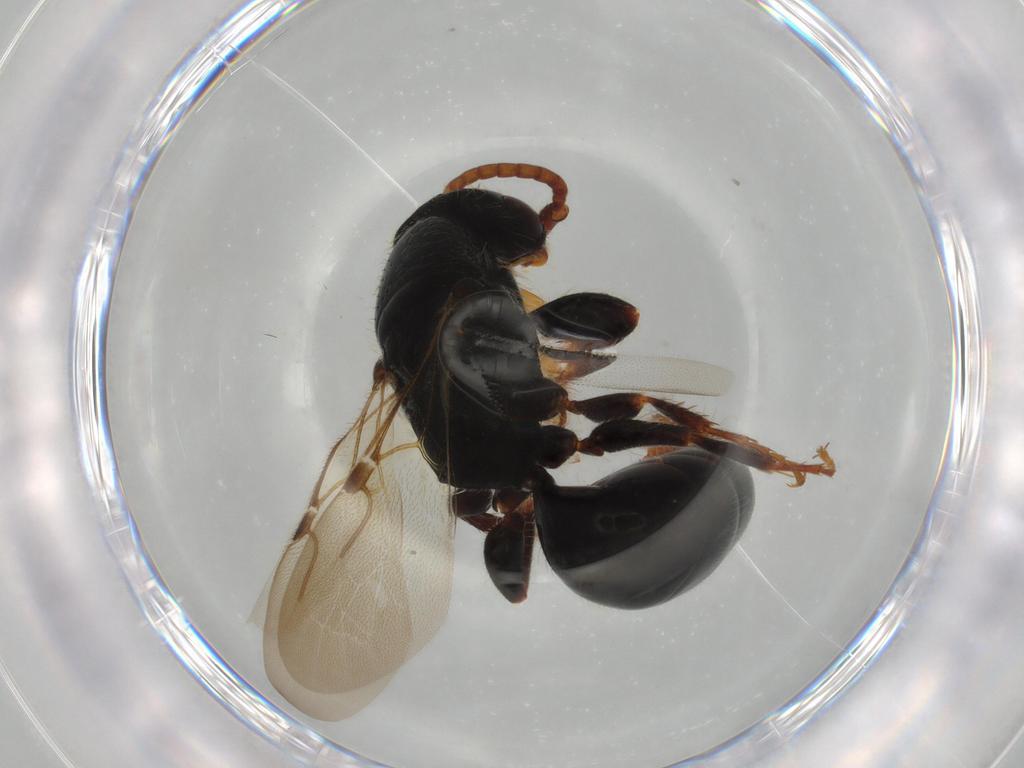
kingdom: Animalia
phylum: Arthropoda
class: Insecta
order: Hymenoptera
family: Bethylidae
